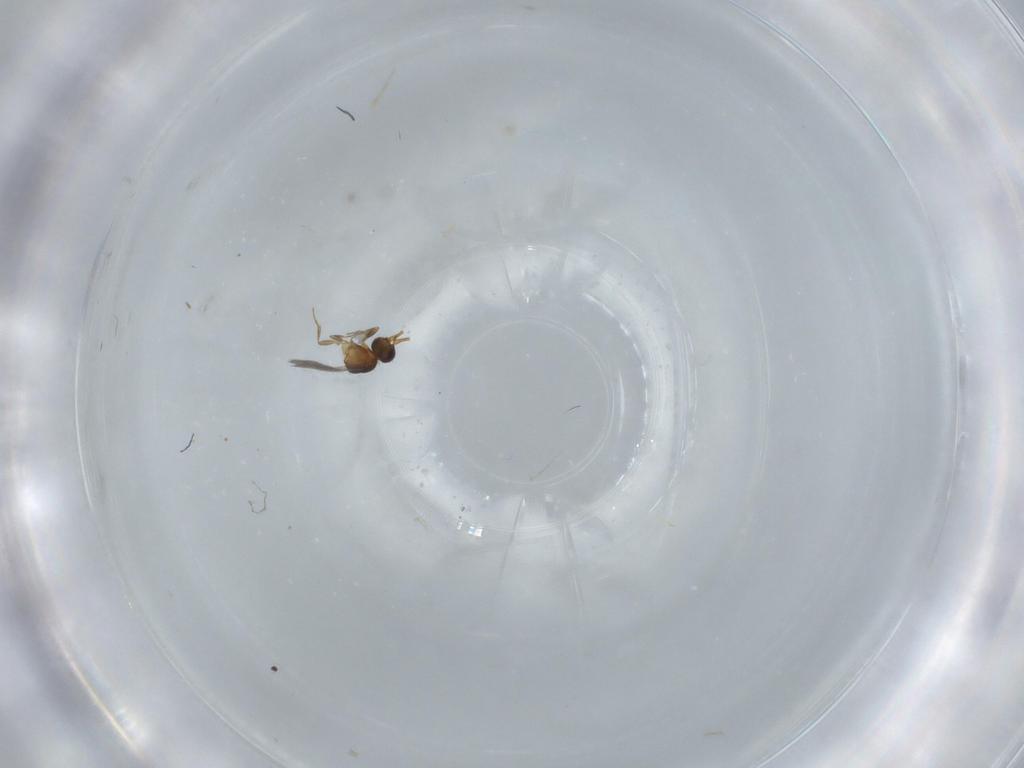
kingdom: Animalia
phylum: Arthropoda
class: Insecta
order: Hymenoptera
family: Ceraphronidae
